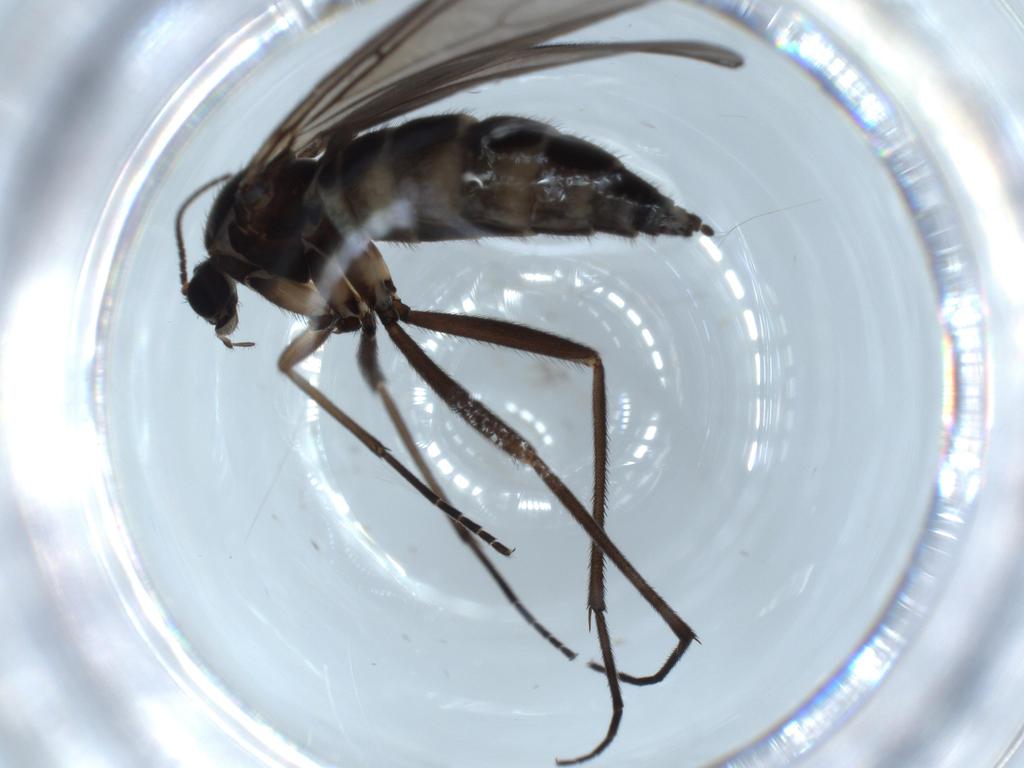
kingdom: Animalia
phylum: Arthropoda
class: Insecta
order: Diptera
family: Sciaridae
